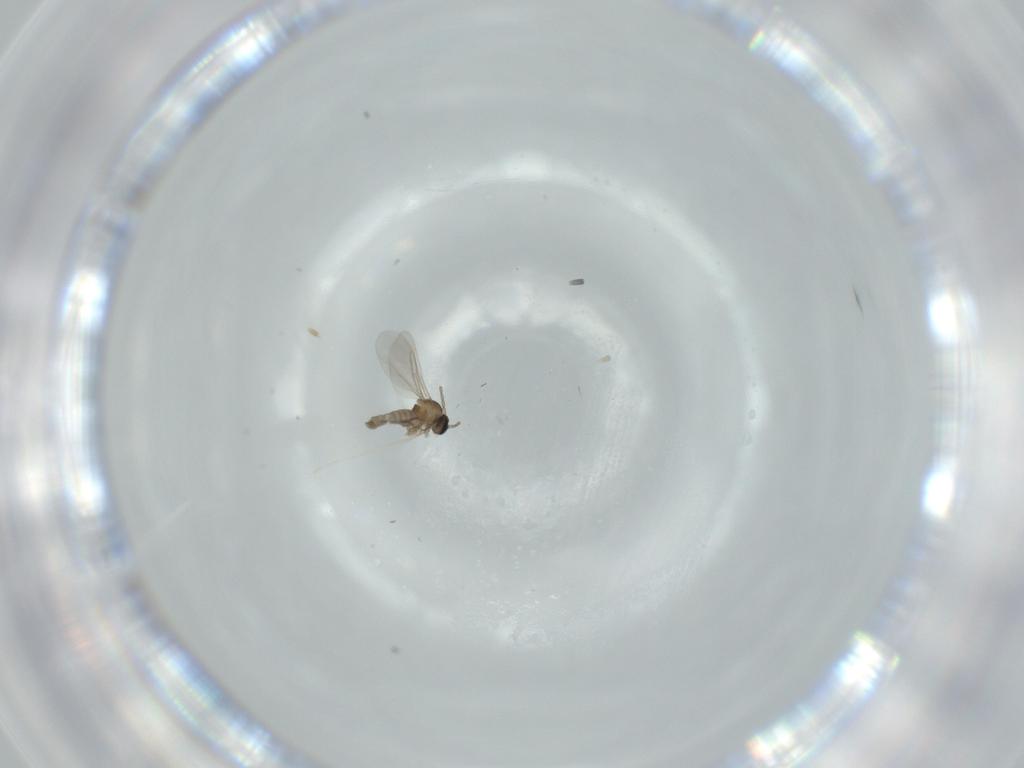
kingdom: Animalia
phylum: Arthropoda
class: Insecta
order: Diptera
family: Cecidomyiidae
